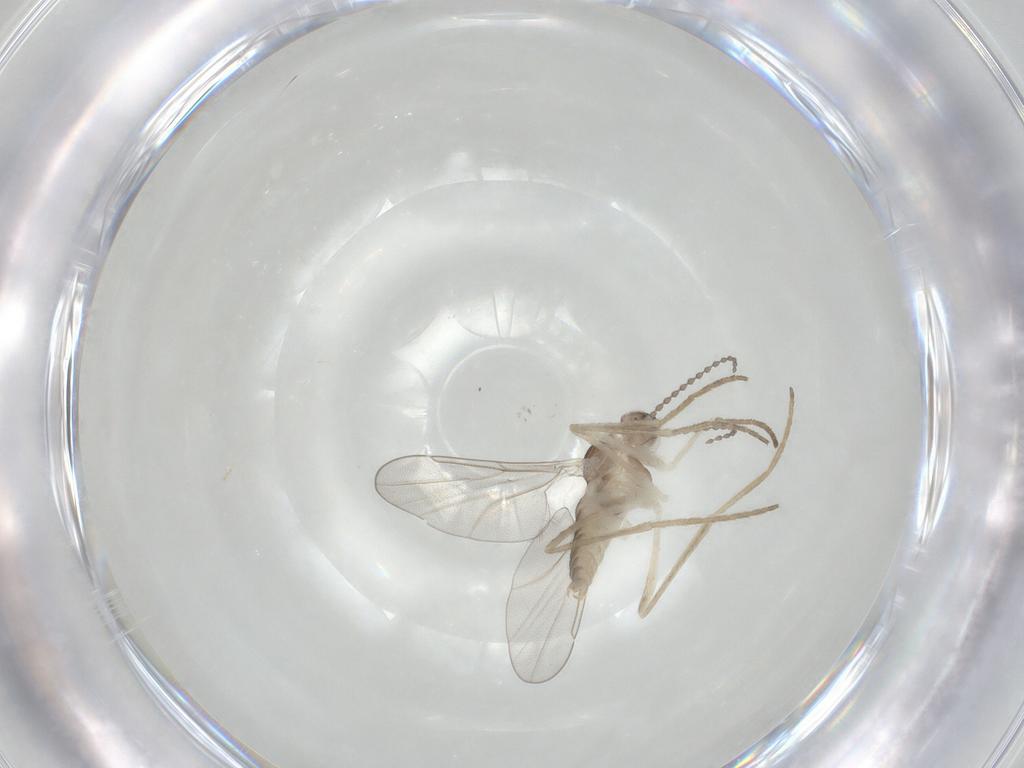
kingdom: Animalia
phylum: Arthropoda
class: Insecta
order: Diptera
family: Cecidomyiidae
